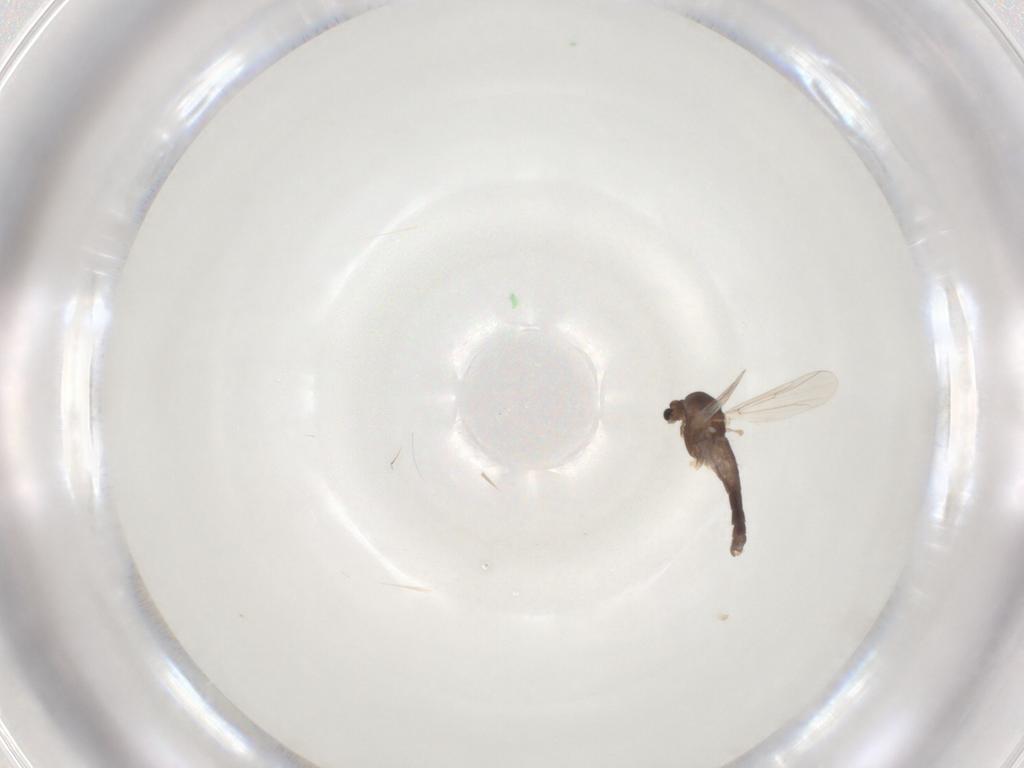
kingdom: Animalia
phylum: Arthropoda
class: Insecta
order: Diptera
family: Chironomidae
